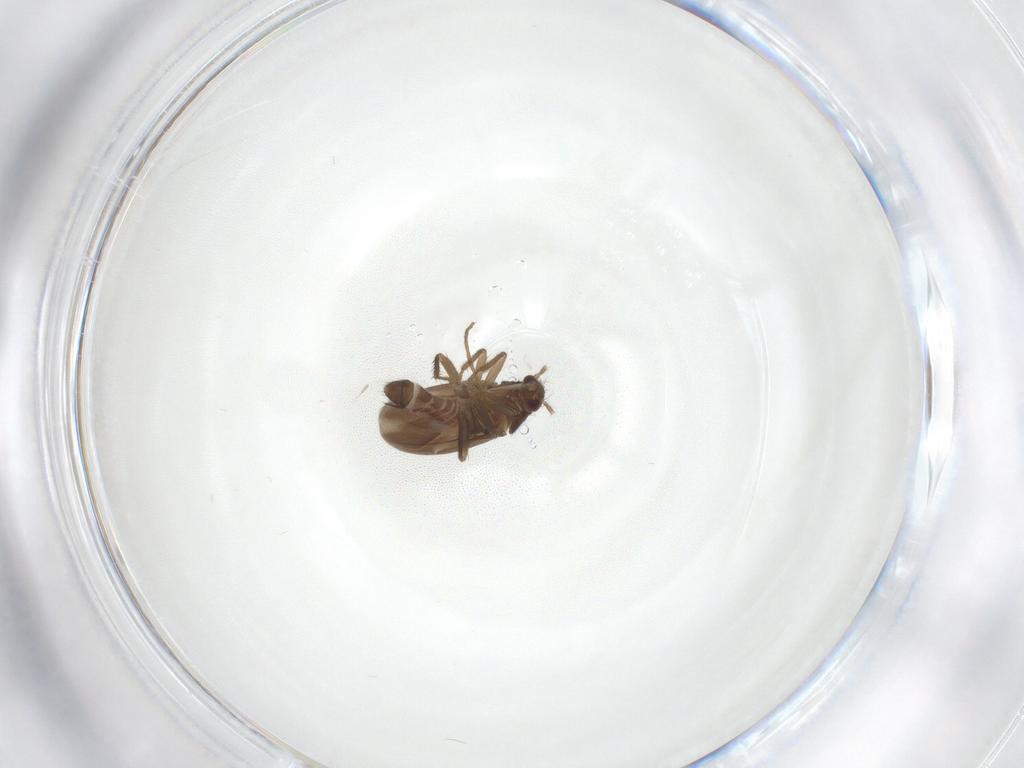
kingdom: Animalia
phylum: Arthropoda
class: Insecta
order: Hemiptera
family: Ceratocombidae
